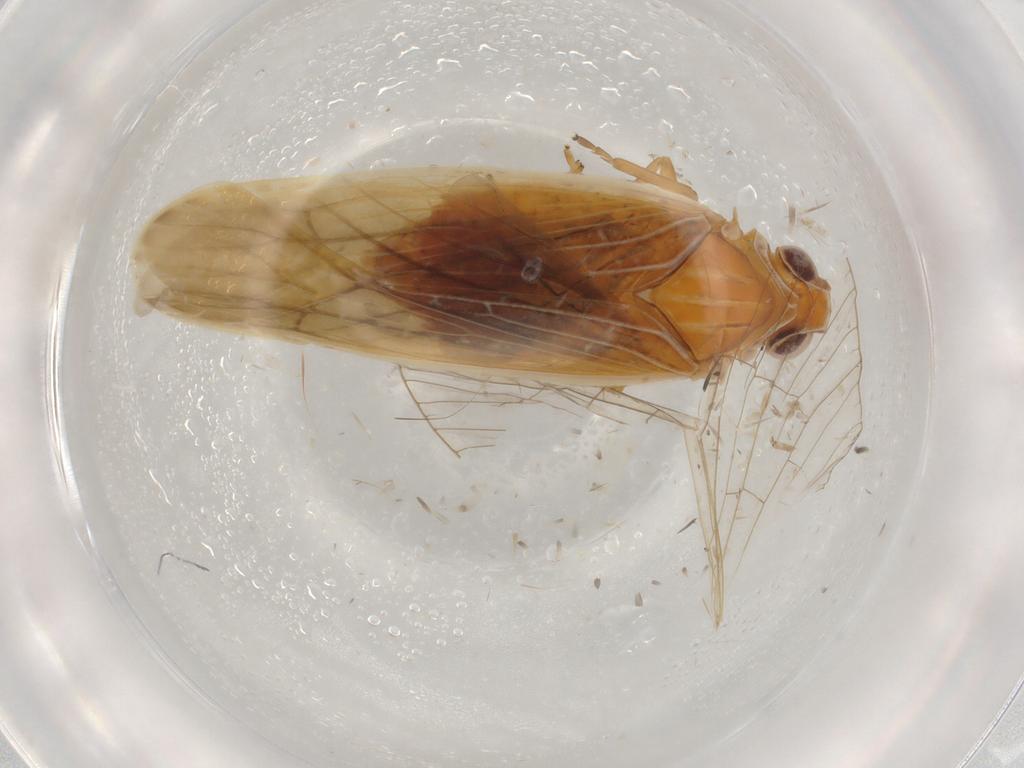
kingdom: Animalia
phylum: Arthropoda
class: Insecta
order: Hemiptera
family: Achilidae
